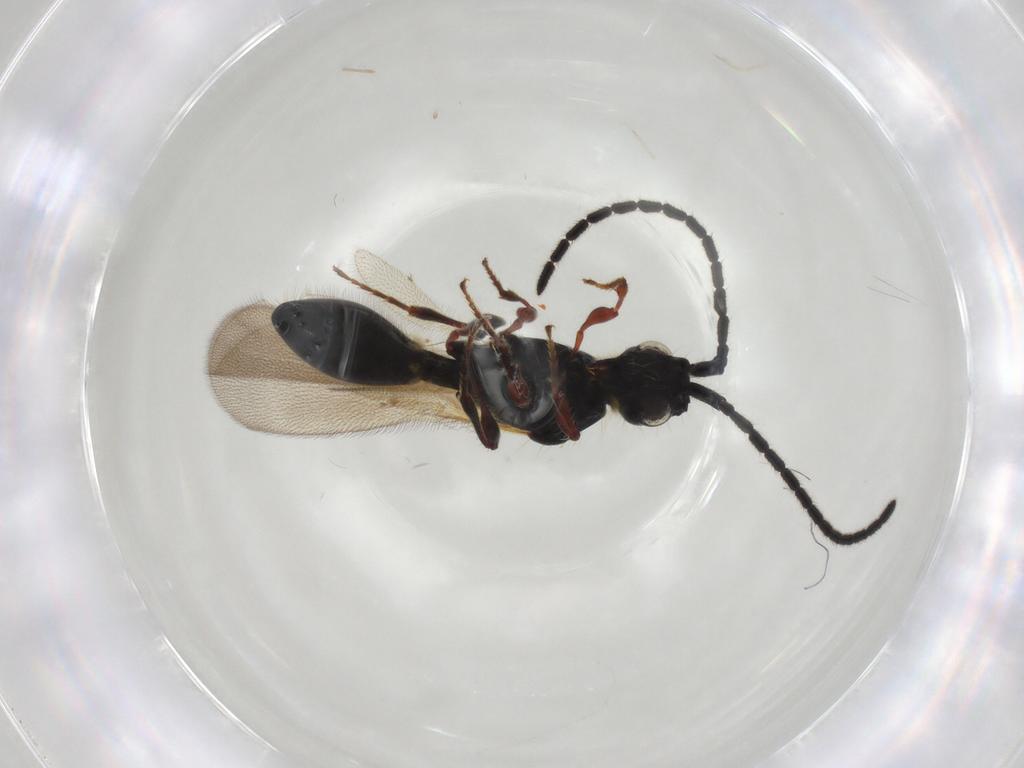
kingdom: Animalia
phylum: Arthropoda
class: Insecta
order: Hymenoptera
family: Diapriidae
